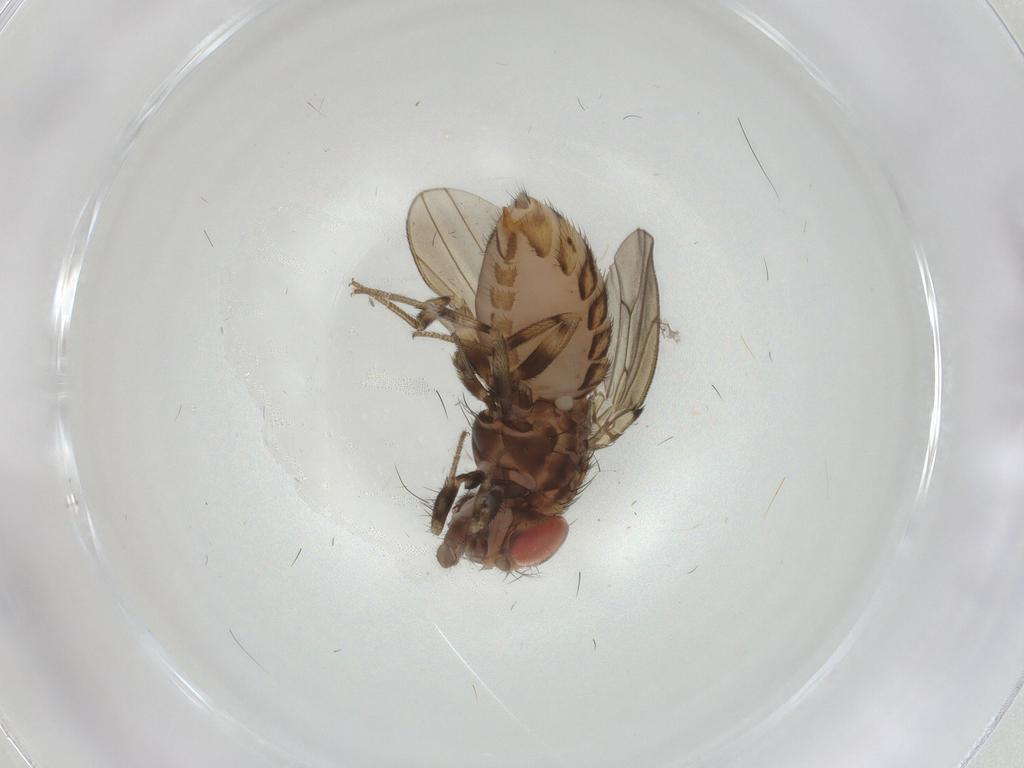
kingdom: Animalia
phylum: Arthropoda
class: Insecta
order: Diptera
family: Drosophilidae
